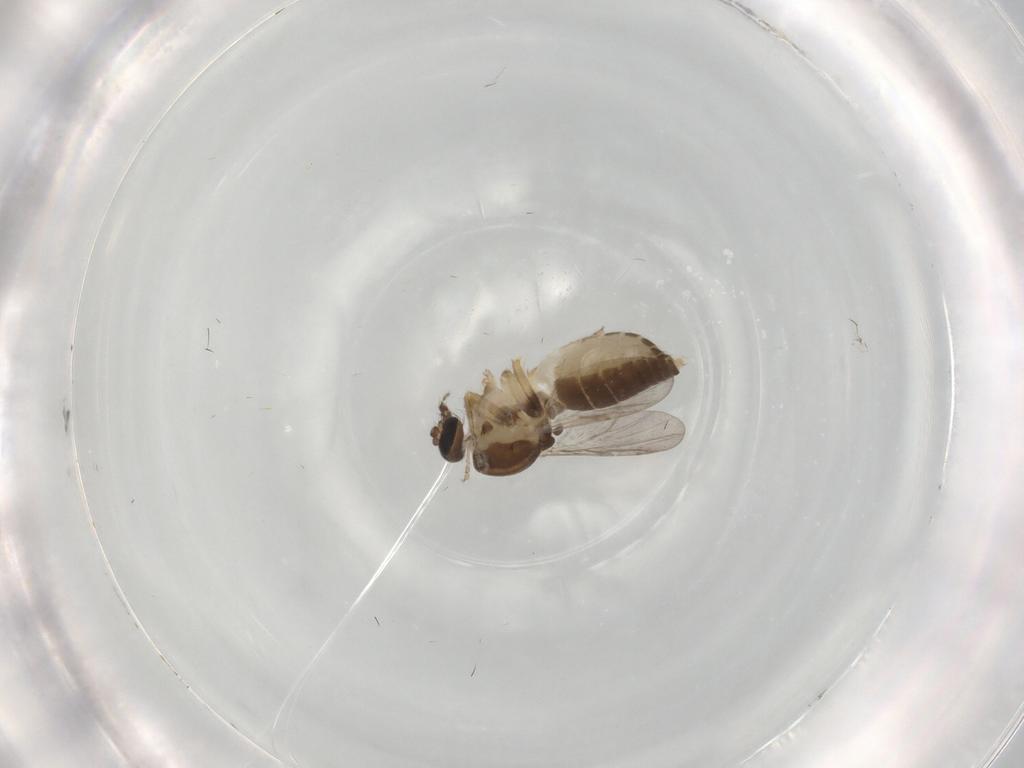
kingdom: Animalia
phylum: Arthropoda
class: Insecta
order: Diptera
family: Ceratopogonidae
